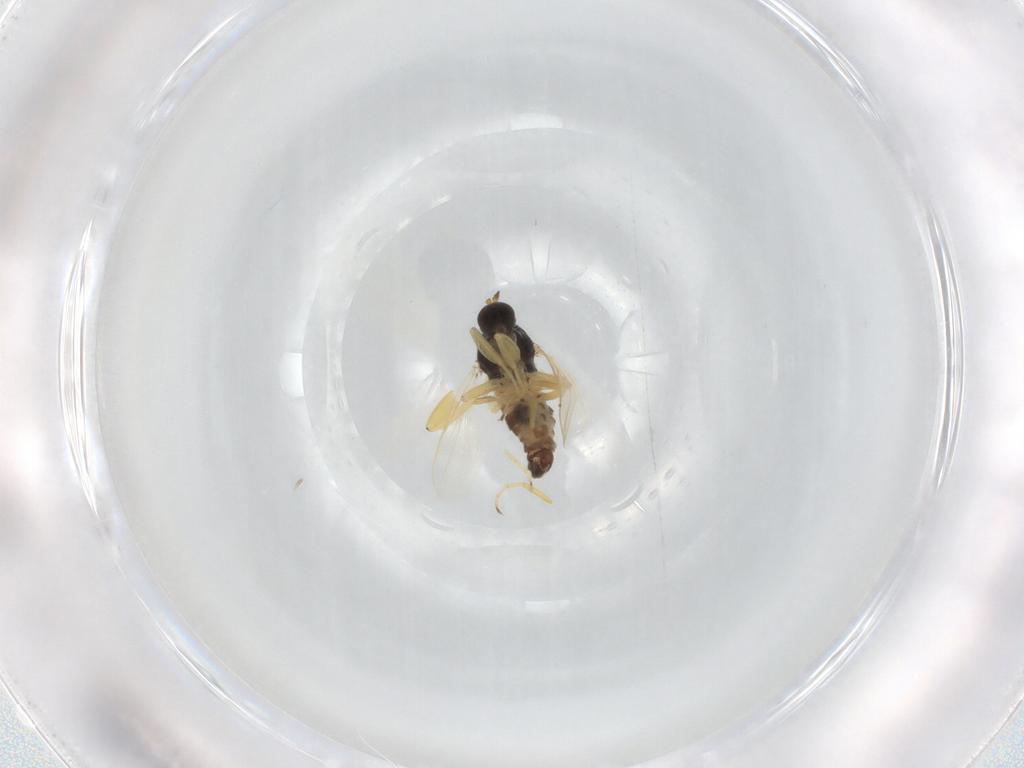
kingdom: Animalia
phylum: Arthropoda
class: Insecta
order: Diptera
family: Hybotidae
